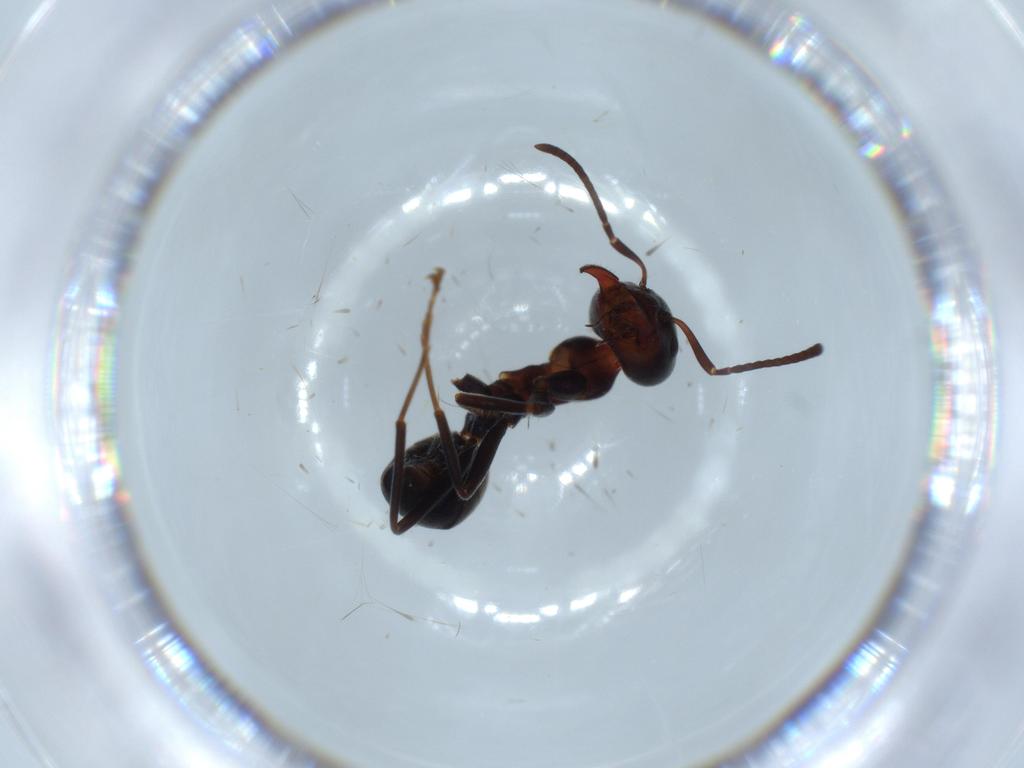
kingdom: Animalia
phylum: Arthropoda
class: Insecta
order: Hymenoptera
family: Formicidae
